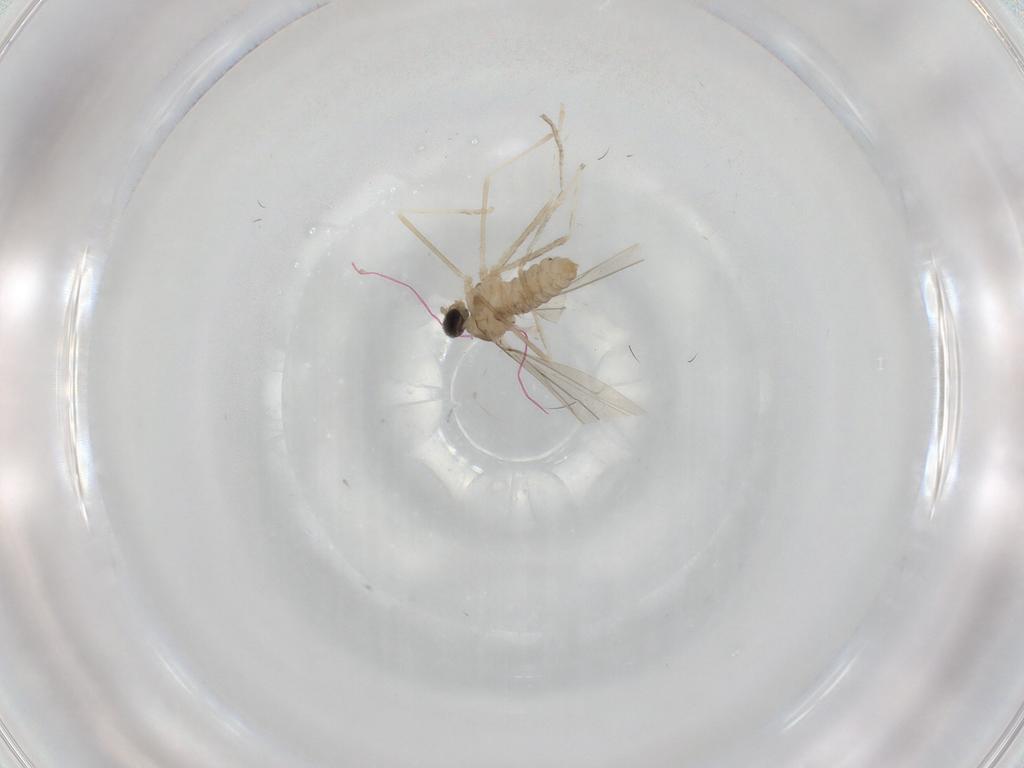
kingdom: Animalia
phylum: Arthropoda
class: Insecta
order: Diptera
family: Cecidomyiidae
